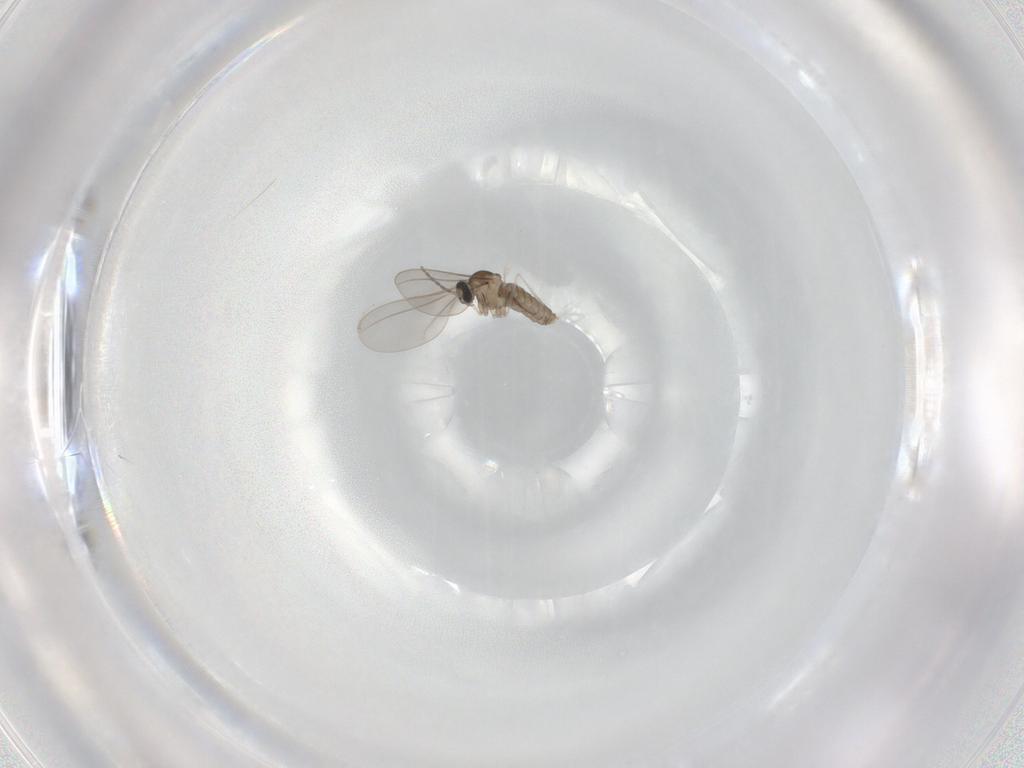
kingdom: Animalia
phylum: Arthropoda
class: Insecta
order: Diptera
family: Sciaridae
